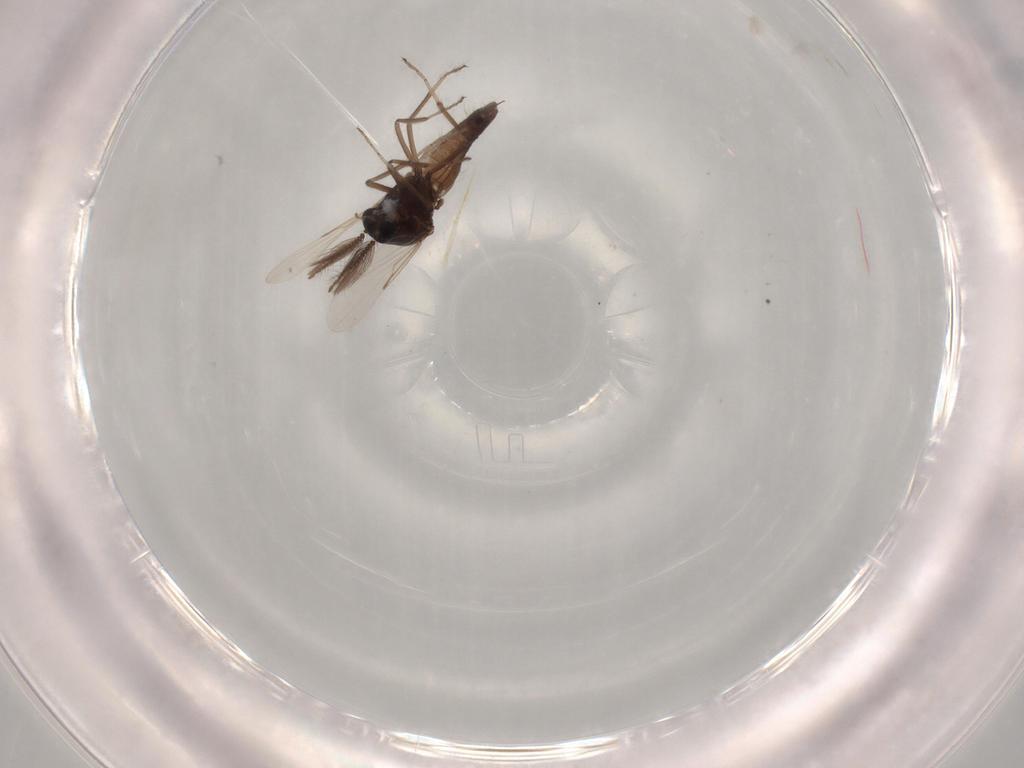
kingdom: Animalia
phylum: Arthropoda
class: Insecta
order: Diptera
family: Chironomidae
